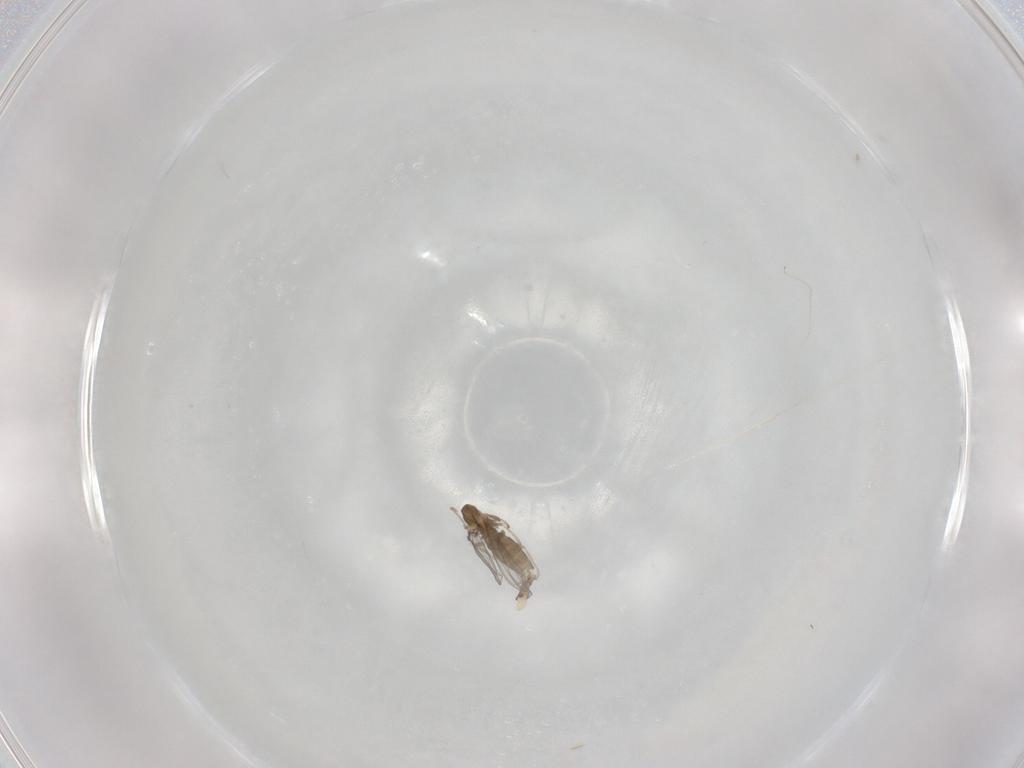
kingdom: Animalia
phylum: Arthropoda
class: Insecta
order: Diptera
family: Cecidomyiidae
